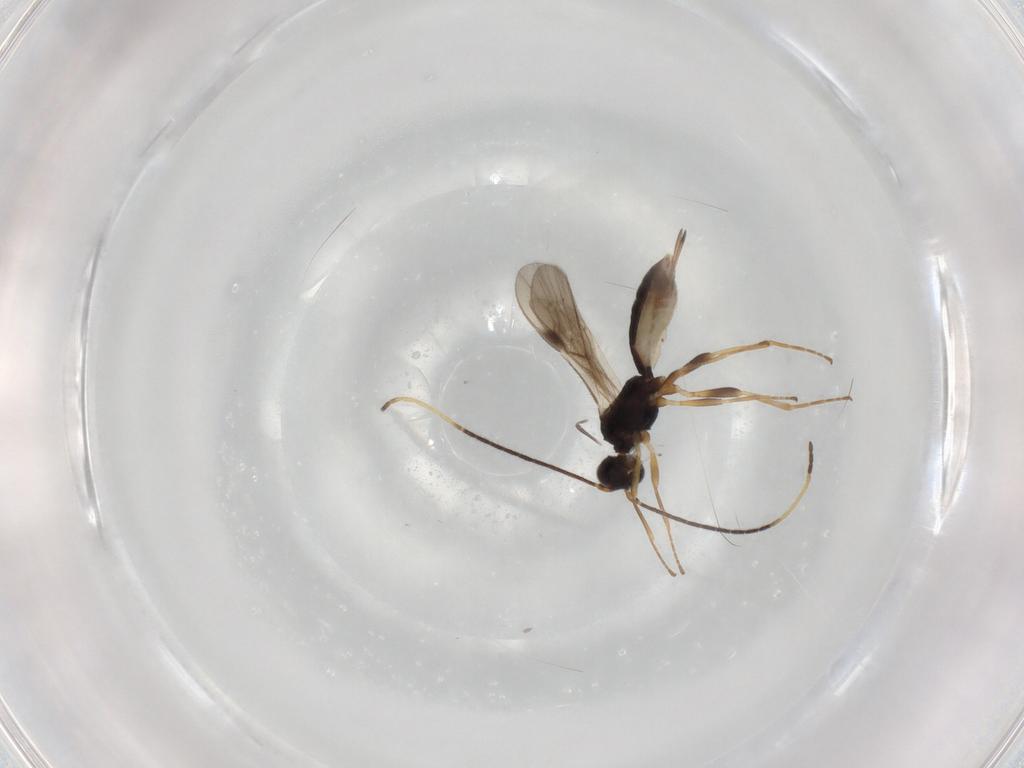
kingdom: Animalia
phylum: Arthropoda
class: Insecta
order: Hymenoptera
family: Braconidae
